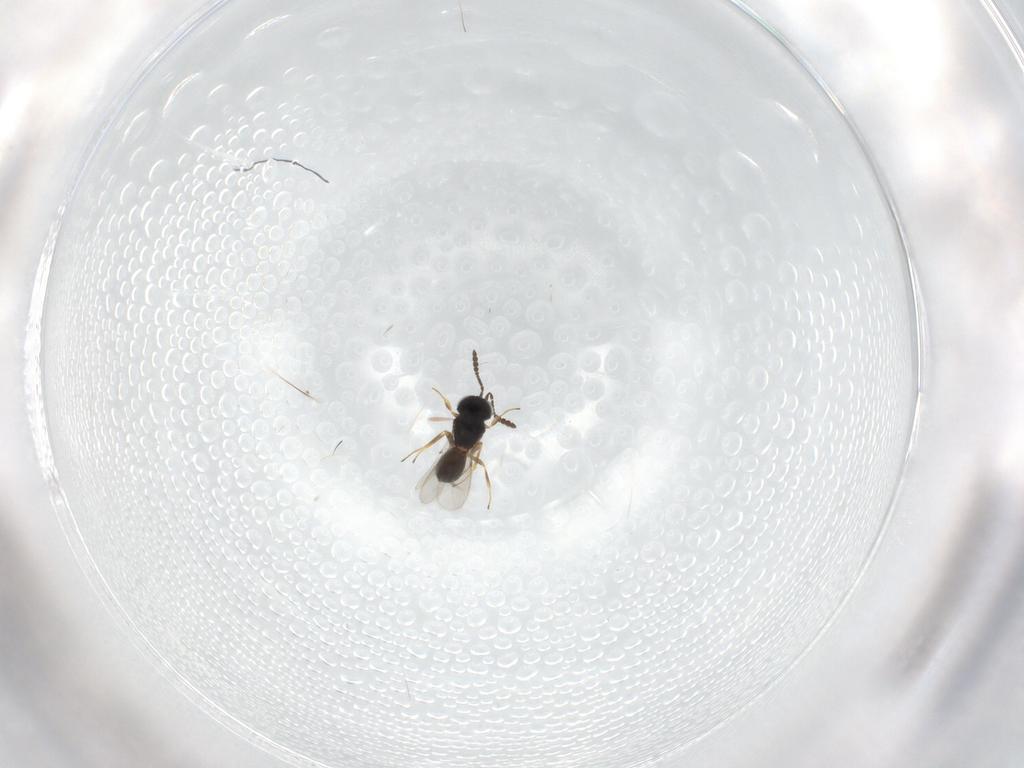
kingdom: Animalia
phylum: Arthropoda
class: Insecta
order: Hymenoptera
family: Scelionidae
